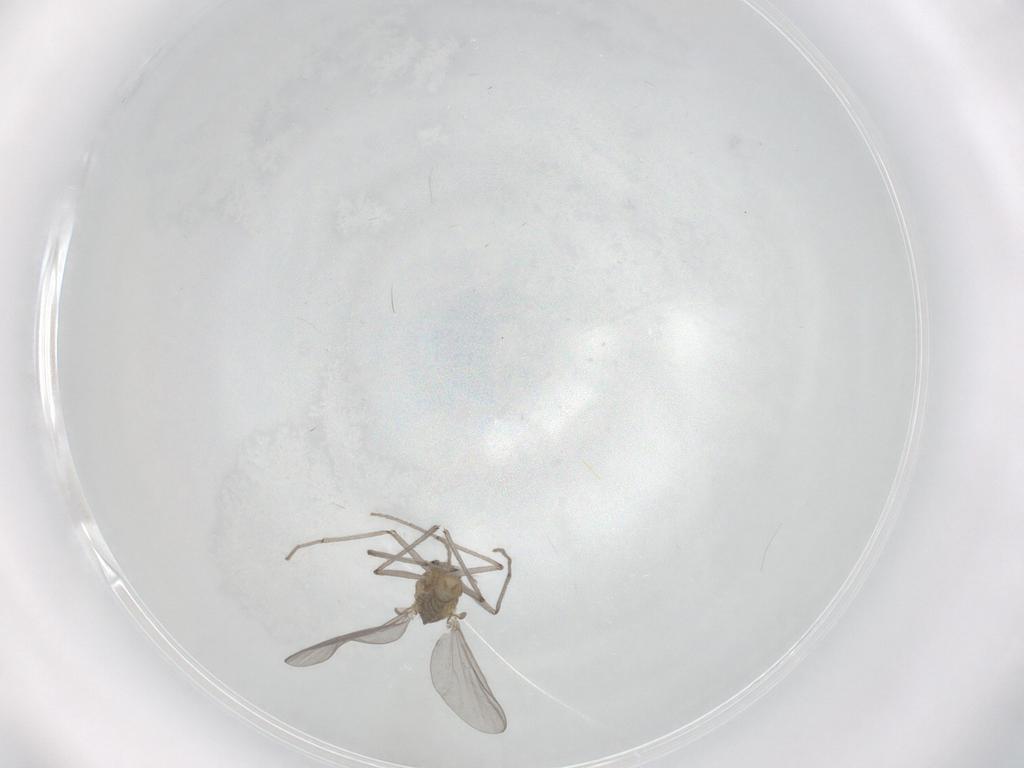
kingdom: Animalia
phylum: Arthropoda
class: Insecta
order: Diptera
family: Chironomidae
